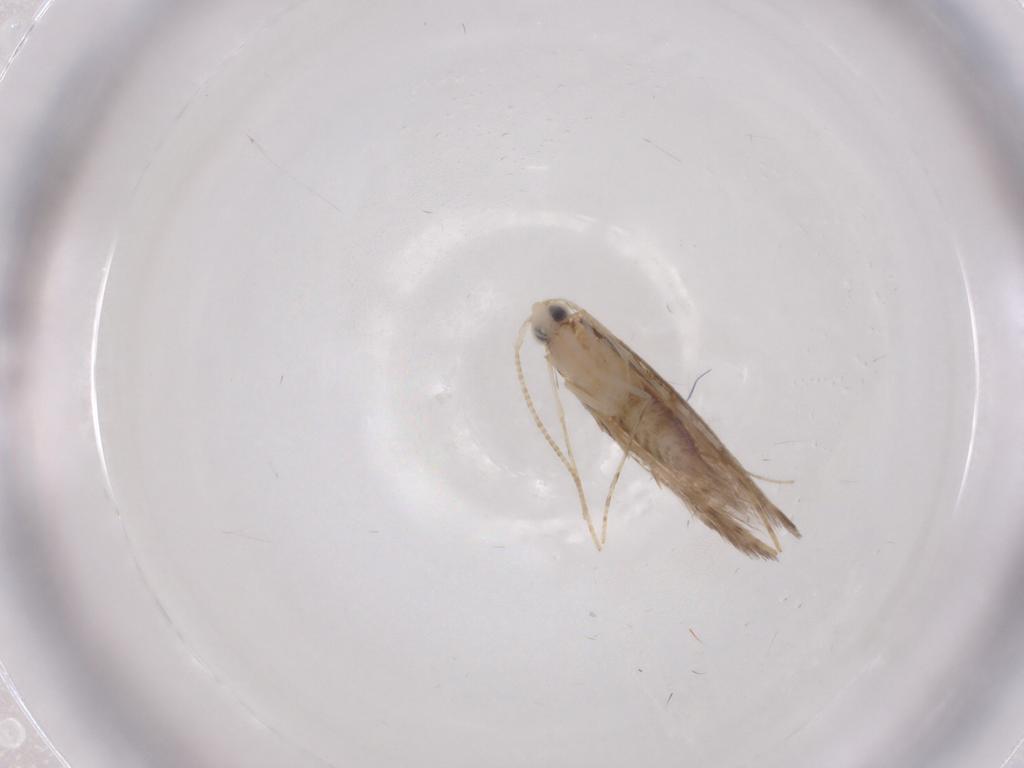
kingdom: Animalia
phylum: Arthropoda
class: Insecta
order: Lepidoptera
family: Lyonetiidae
